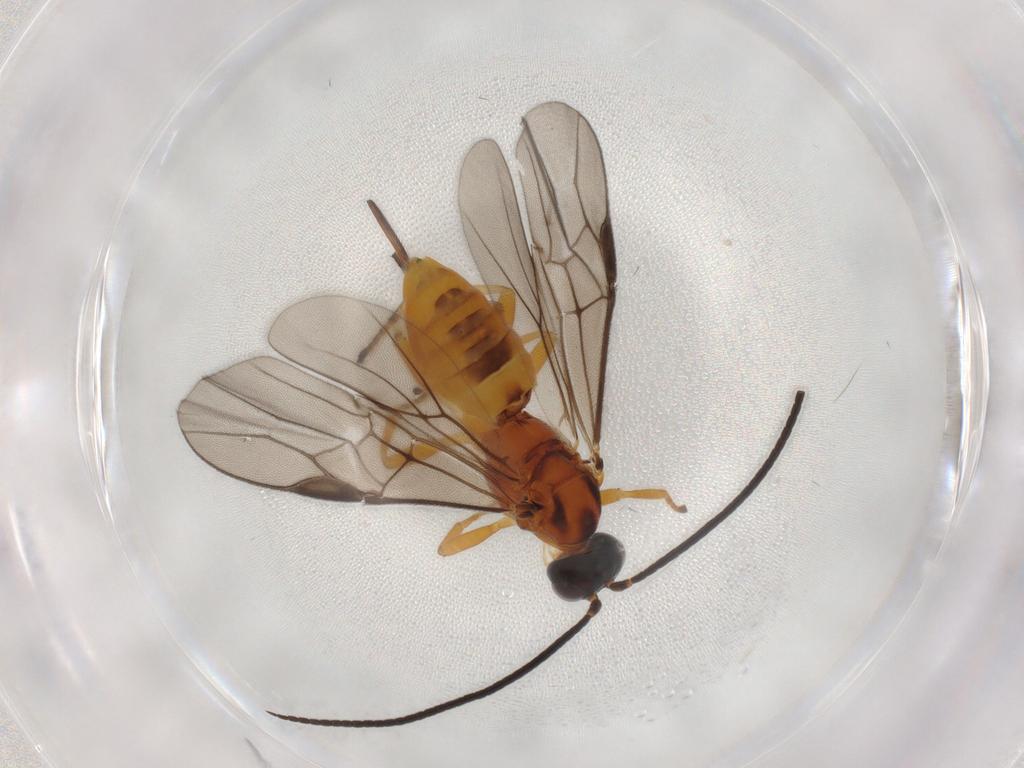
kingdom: Animalia
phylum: Arthropoda
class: Insecta
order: Hymenoptera
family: Braconidae
